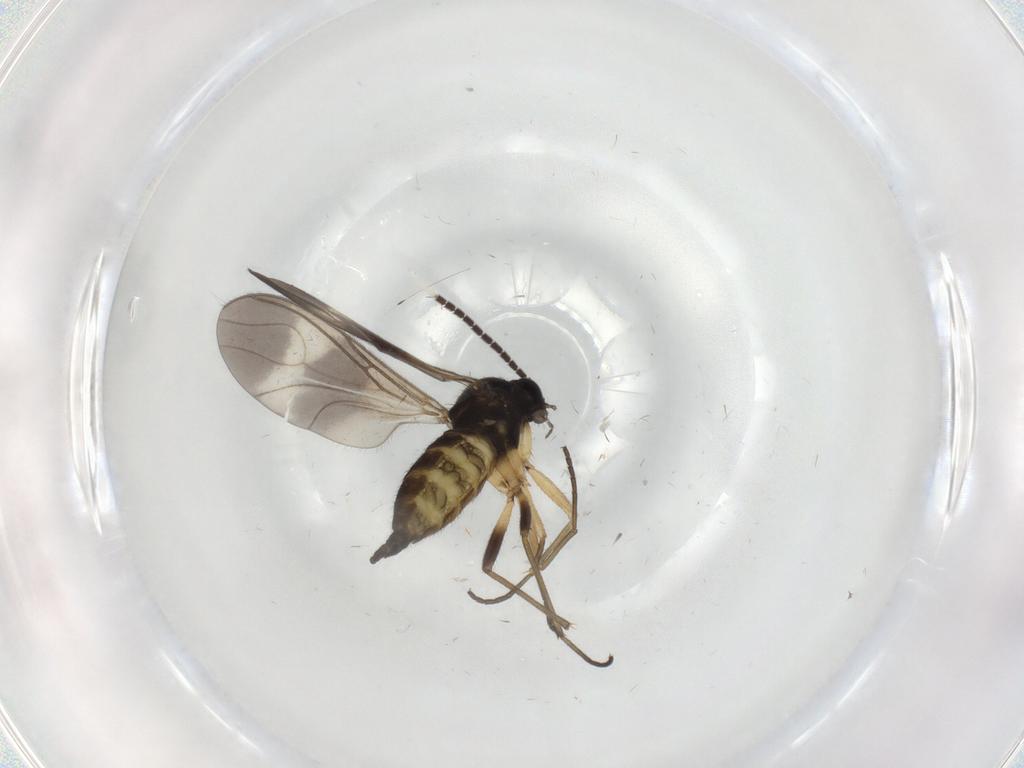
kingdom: Animalia
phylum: Arthropoda
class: Insecta
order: Diptera
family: Sciaridae
